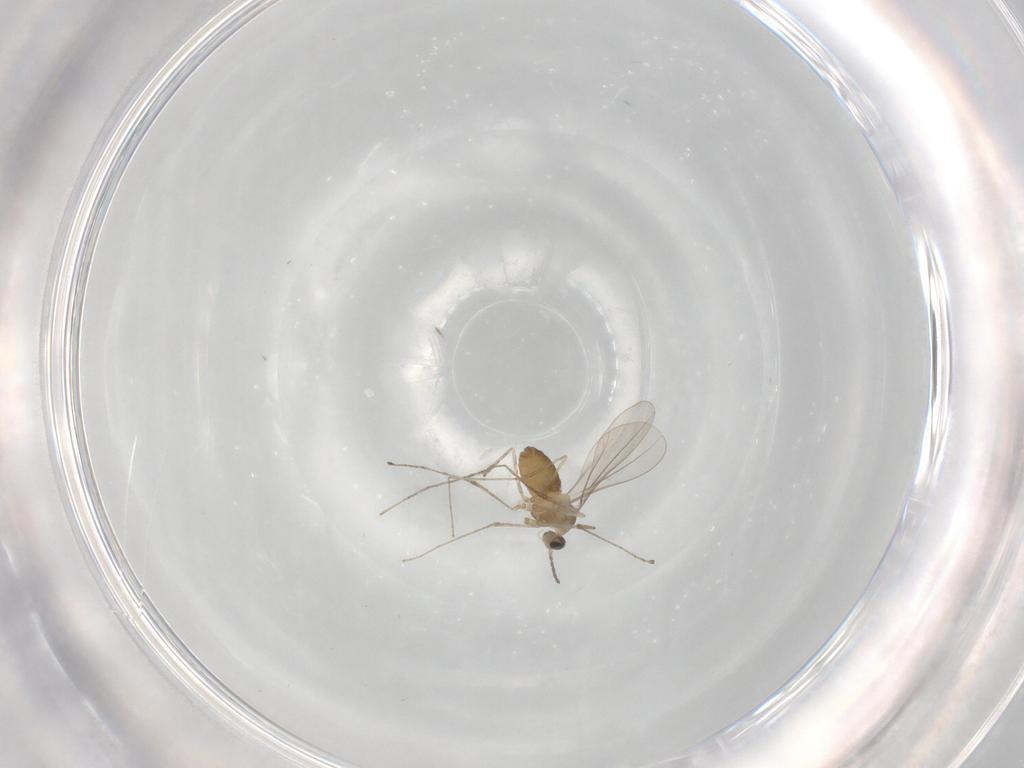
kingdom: Animalia
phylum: Arthropoda
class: Insecta
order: Diptera
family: Cecidomyiidae
